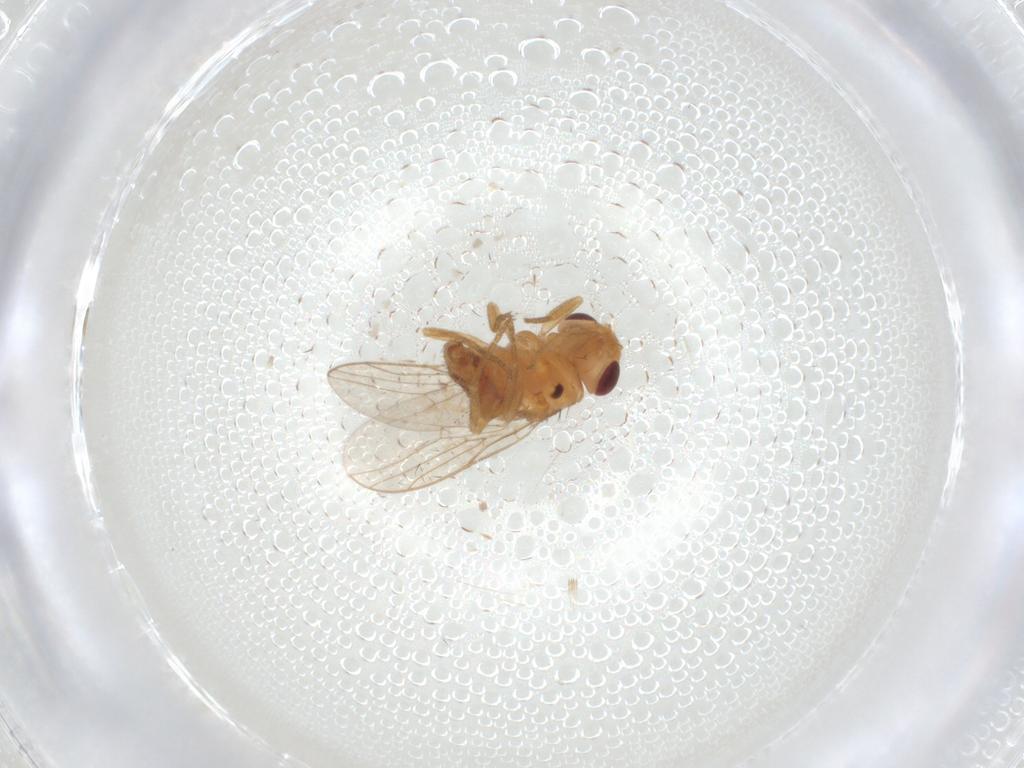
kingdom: Animalia
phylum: Arthropoda
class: Insecta
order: Diptera
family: Chloropidae
